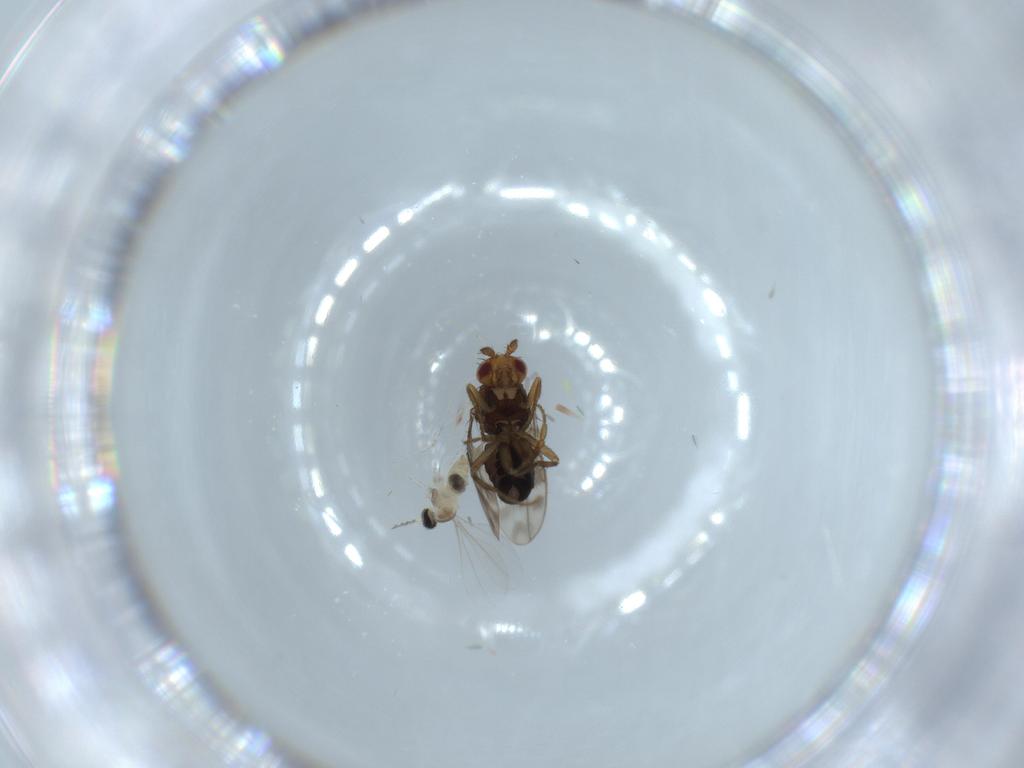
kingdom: Animalia
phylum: Arthropoda
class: Insecta
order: Diptera
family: Sphaeroceridae
